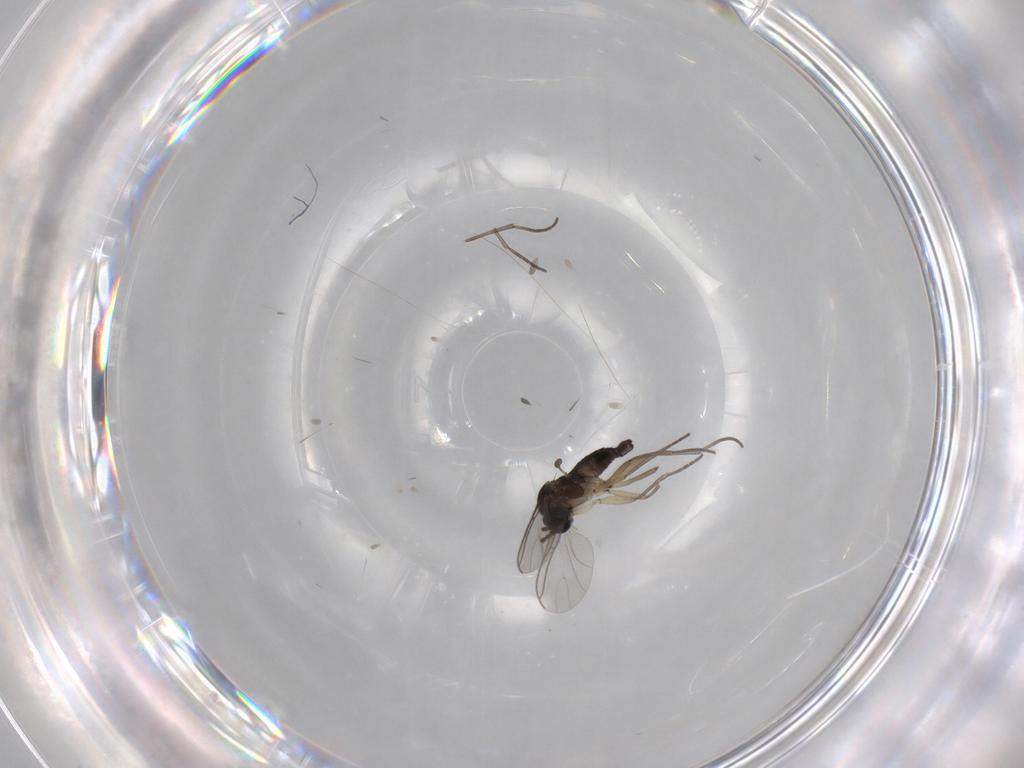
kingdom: Animalia
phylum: Arthropoda
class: Insecta
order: Diptera
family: Sciaridae
